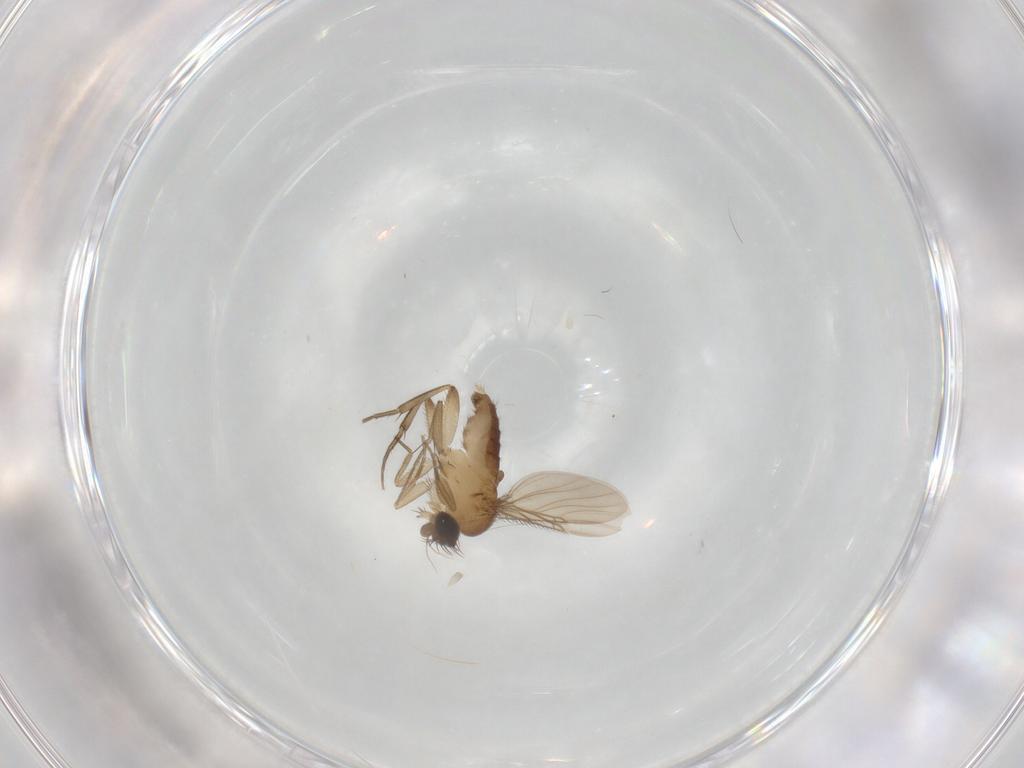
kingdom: Animalia
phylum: Arthropoda
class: Insecta
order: Diptera
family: Phoridae
